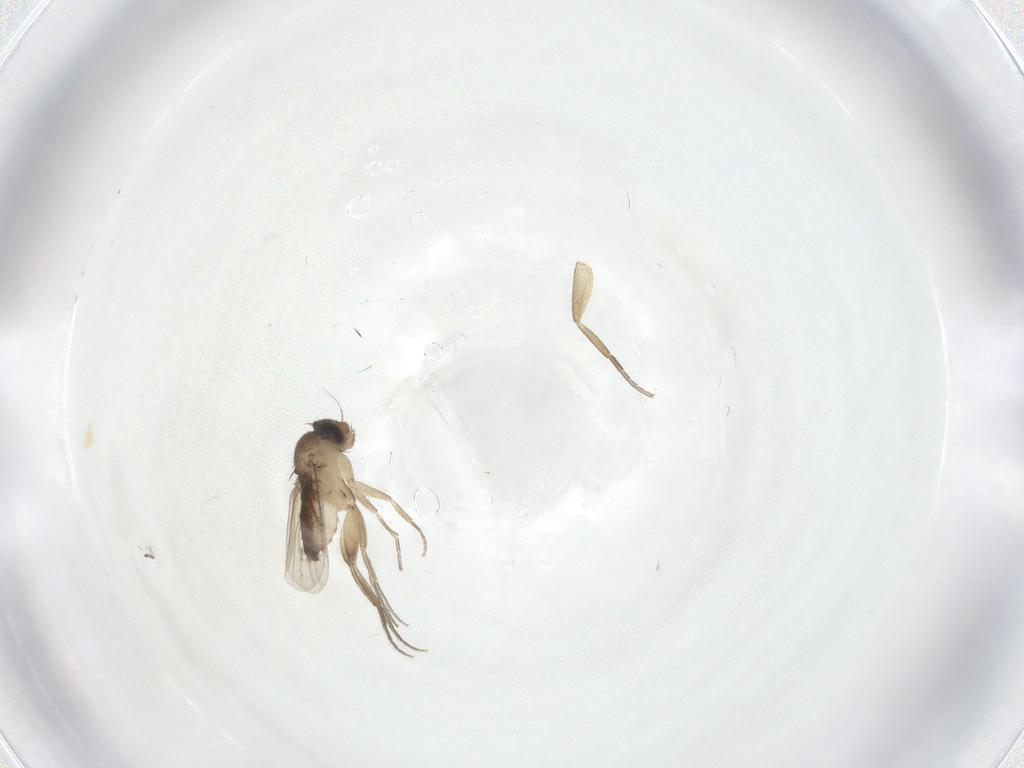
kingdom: Animalia
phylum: Arthropoda
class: Insecta
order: Diptera
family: Phoridae
